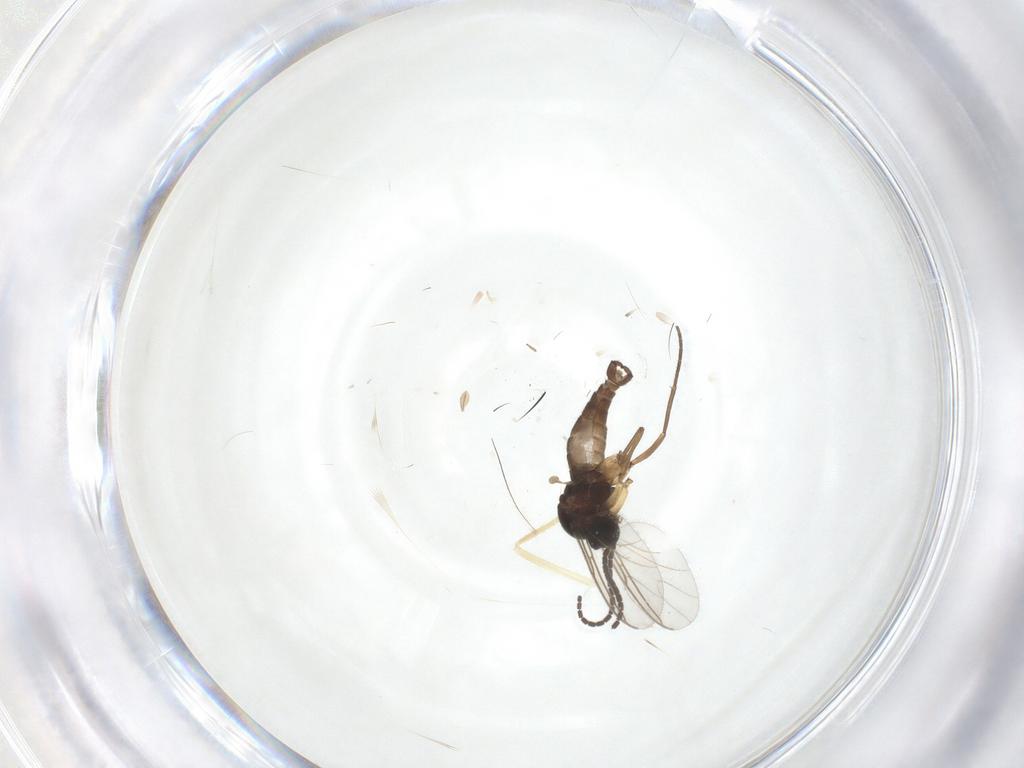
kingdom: Animalia
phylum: Arthropoda
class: Insecta
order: Diptera
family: Sciaridae
